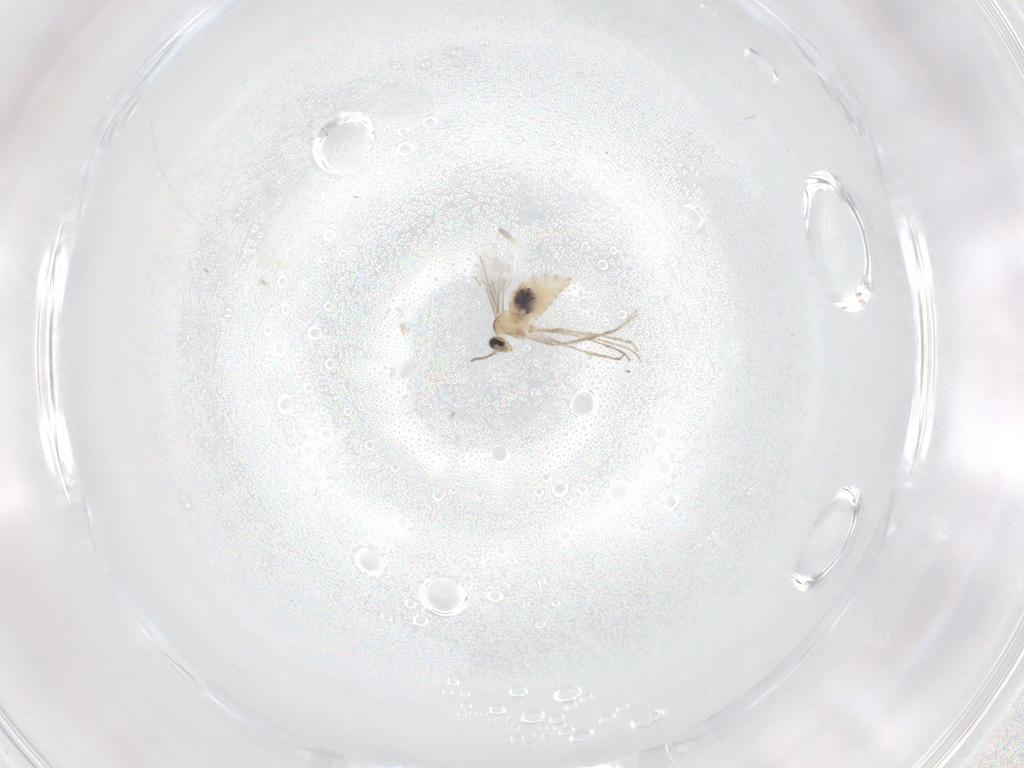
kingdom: Animalia
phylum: Arthropoda
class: Insecta
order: Diptera
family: Cecidomyiidae
